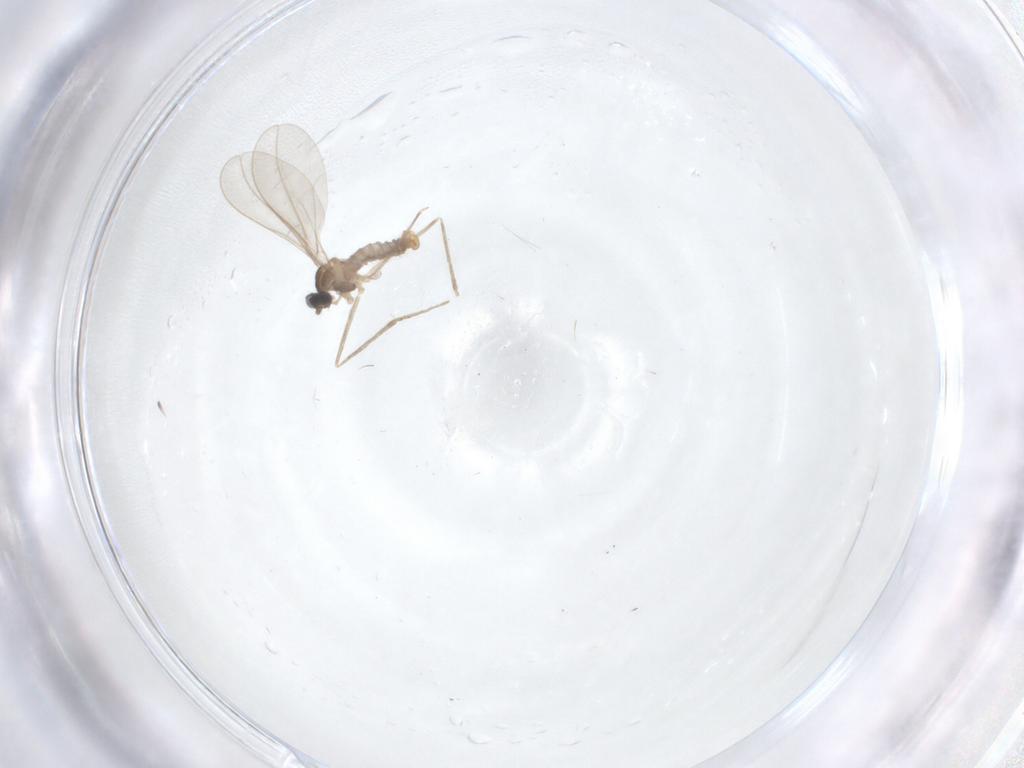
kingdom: Animalia
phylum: Arthropoda
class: Insecta
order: Diptera
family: Cecidomyiidae
